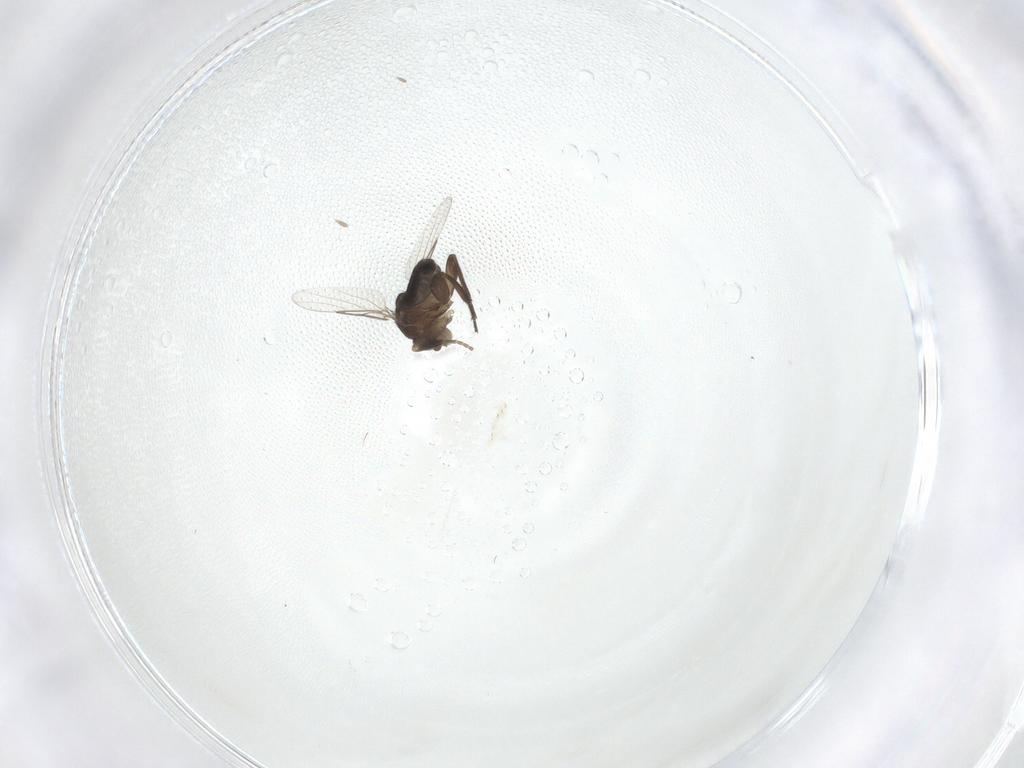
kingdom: Animalia
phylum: Arthropoda
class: Insecta
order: Diptera
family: Phoridae
